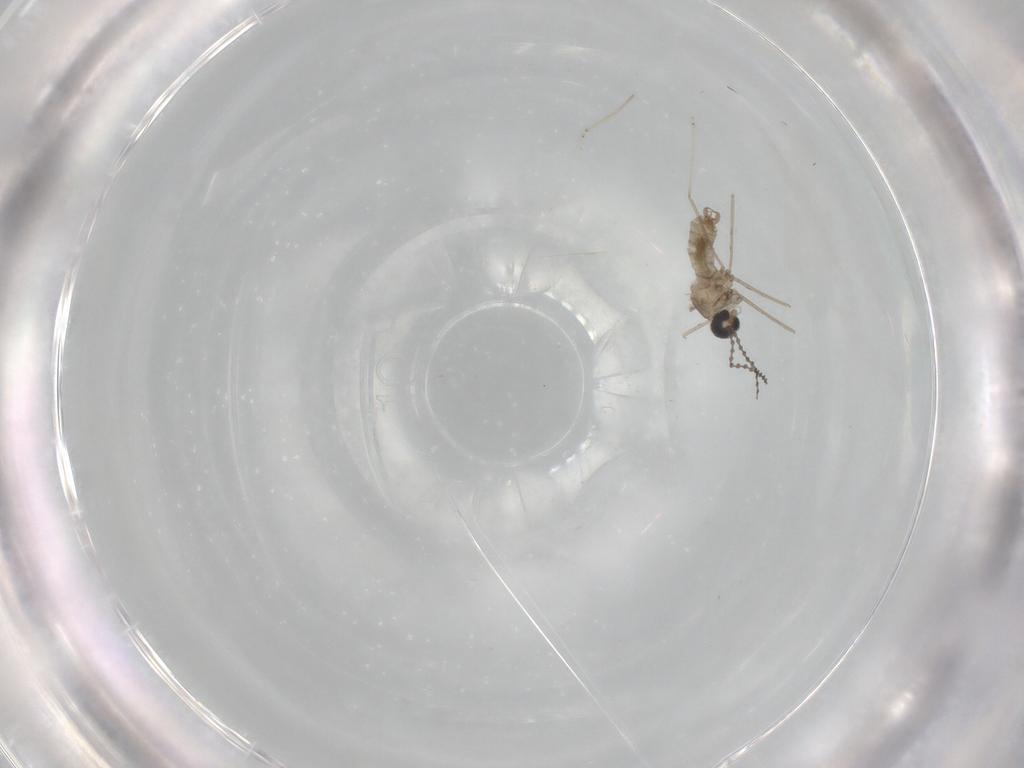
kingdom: Animalia
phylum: Arthropoda
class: Insecta
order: Diptera
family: Cecidomyiidae
